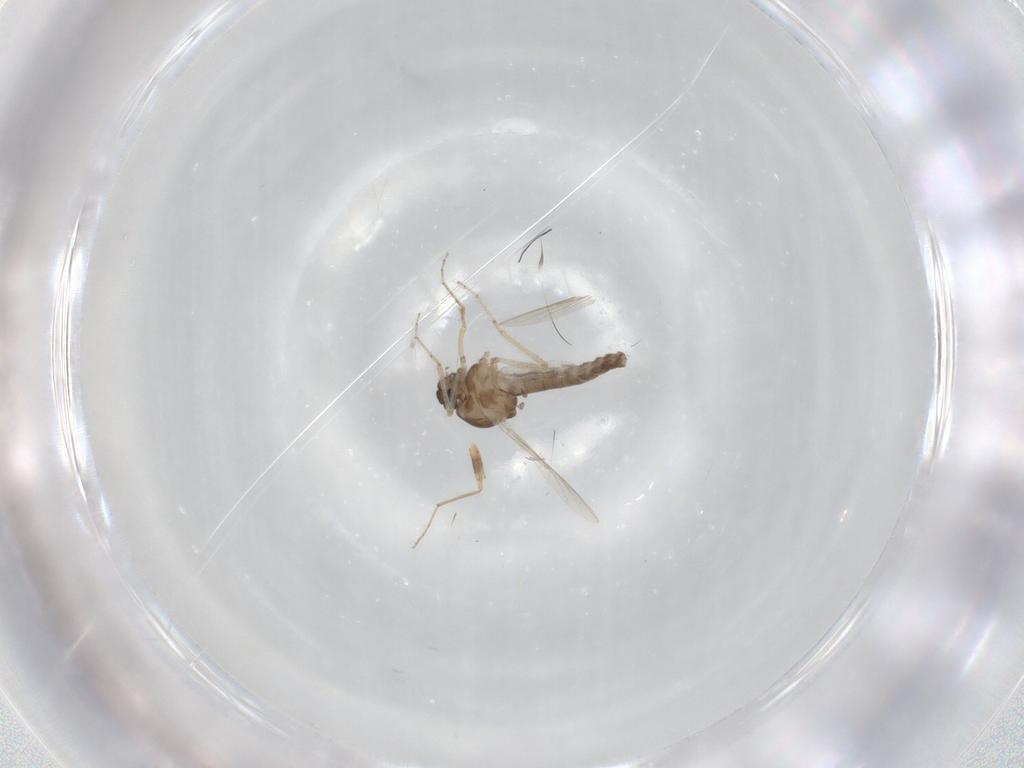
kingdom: Animalia
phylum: Arthropoda
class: Insecta
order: Diptera
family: Ceratopogonidae
